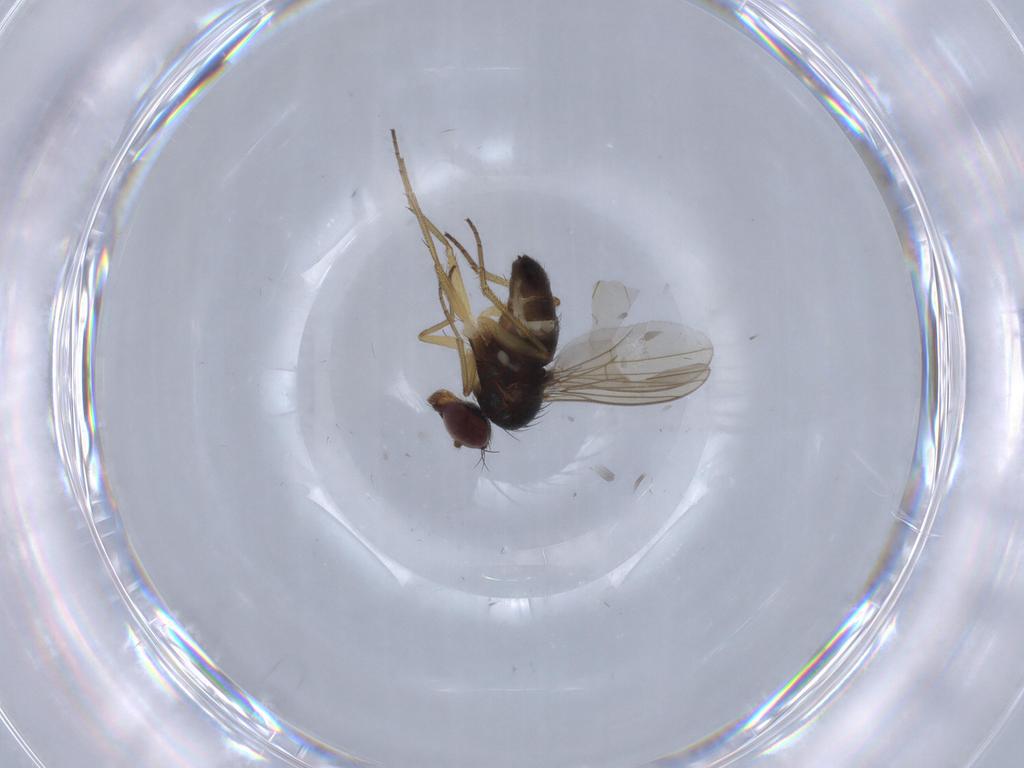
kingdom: Animalia
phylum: Arthropoda
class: Insecta
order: Diptera
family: Dolichopodidae
